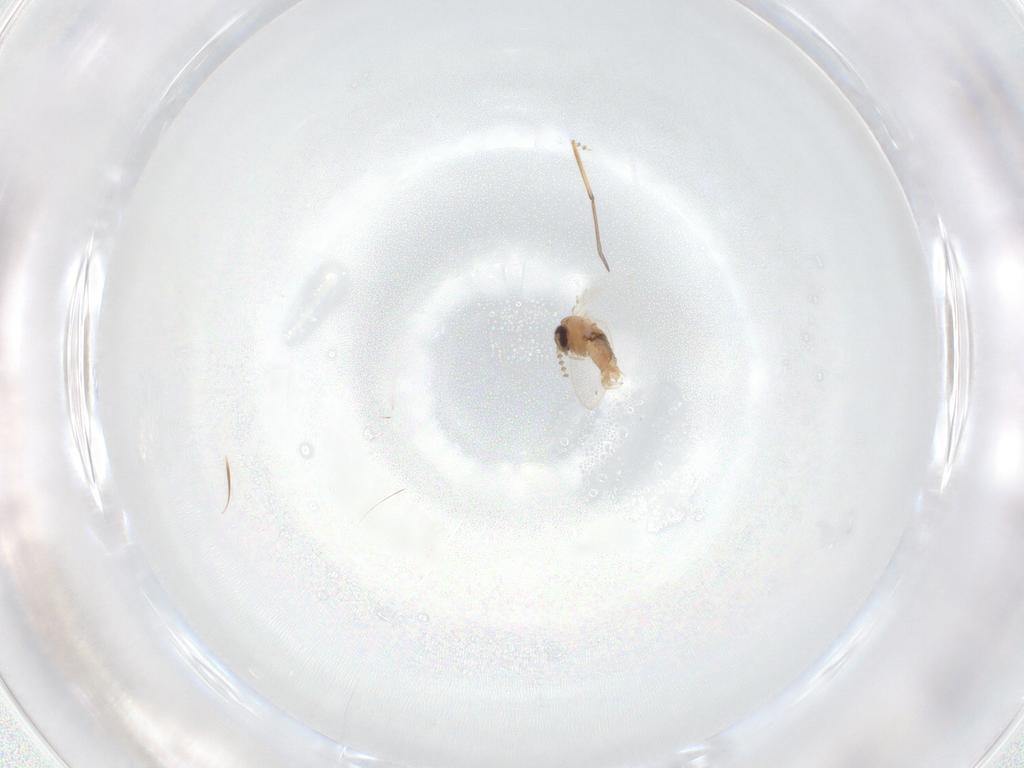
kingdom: Animalia
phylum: Arthropoda
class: Insecta
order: Diptera
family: Psychodidae
